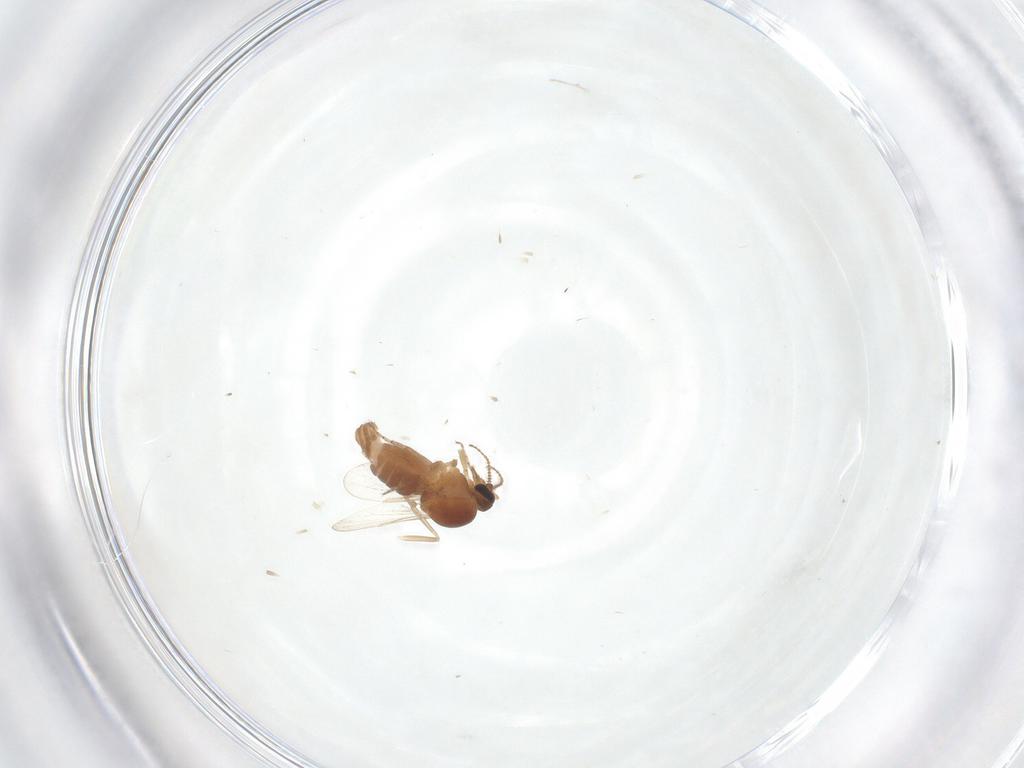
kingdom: Animalia
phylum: Arthropoda
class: Insecta
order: Diptera
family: Ceratopogonidae
